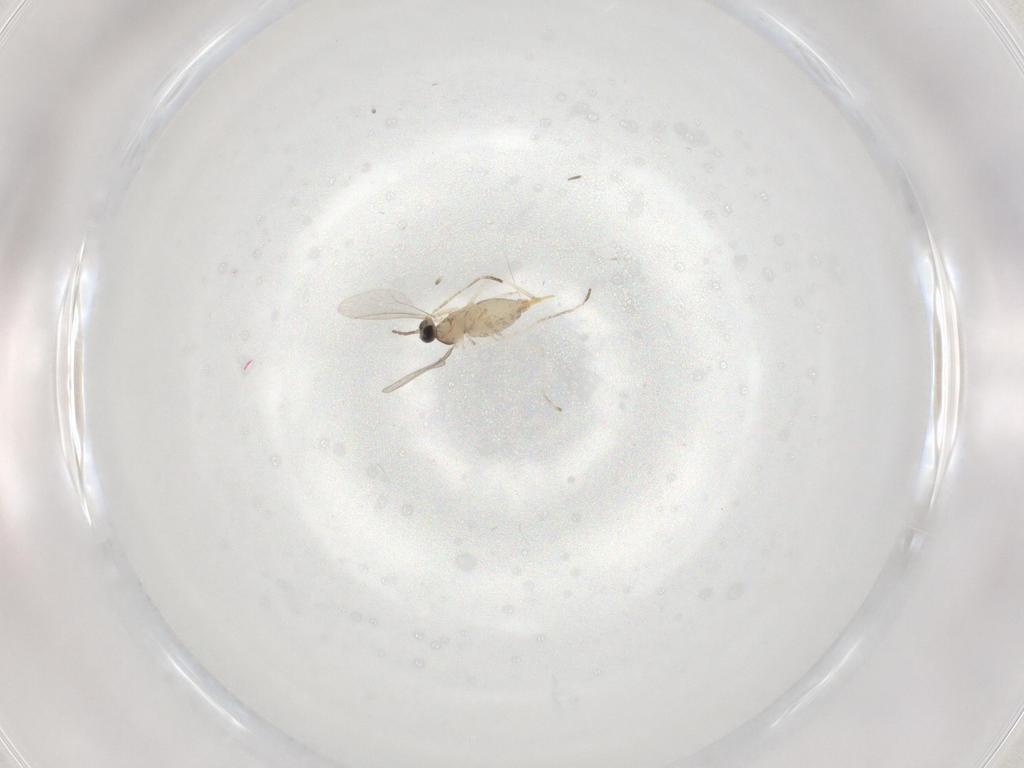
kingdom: Animalia
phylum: Arthropoda
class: Insecta
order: Diptera
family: Cecidomyiidae
